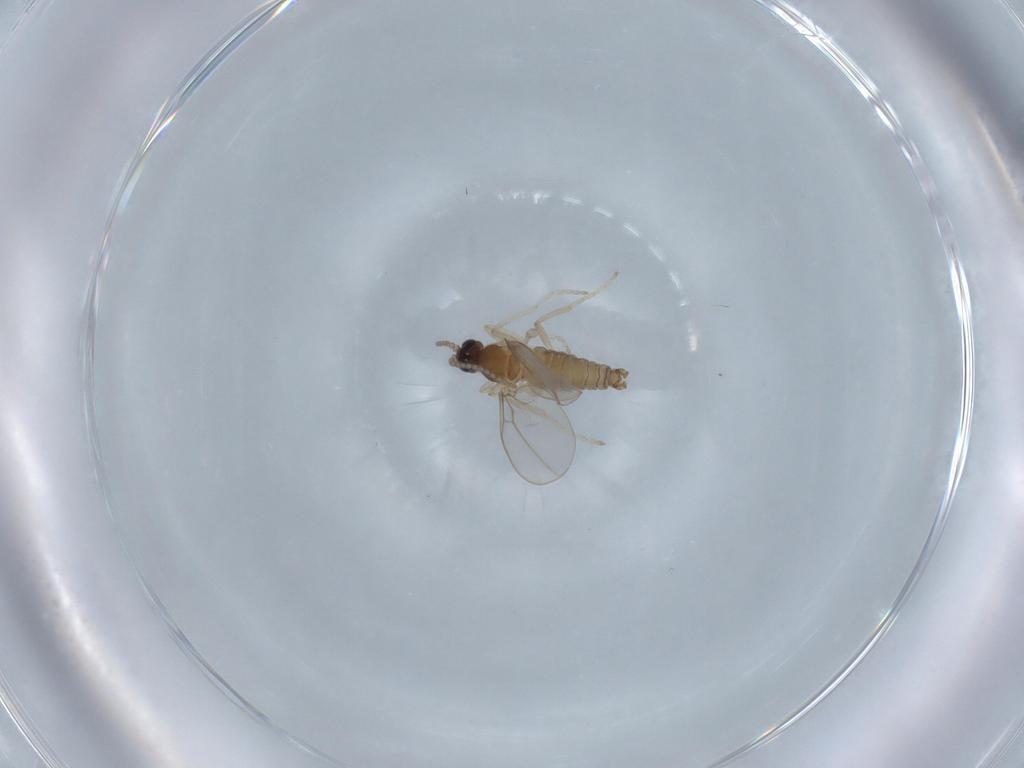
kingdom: Animalia
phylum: Arthropoda
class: Insecta
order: Diptera
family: Cecidomyiidae
